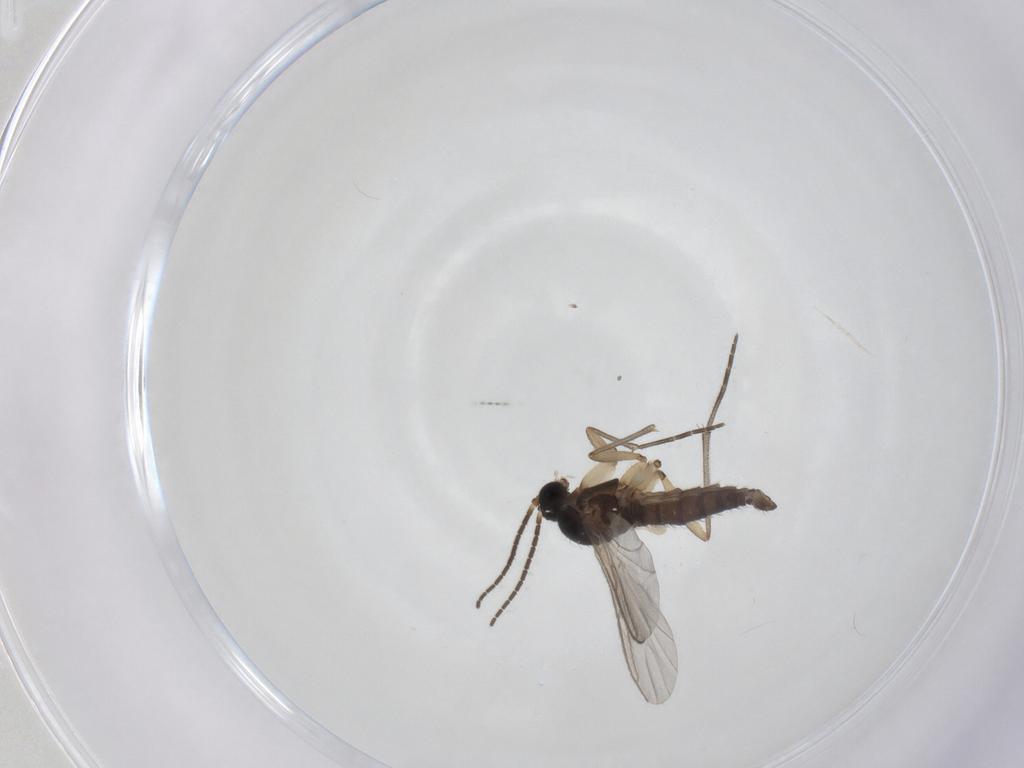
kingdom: Animalia
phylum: Arthropoda
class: Insecta
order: Diptera
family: Sciaridae
